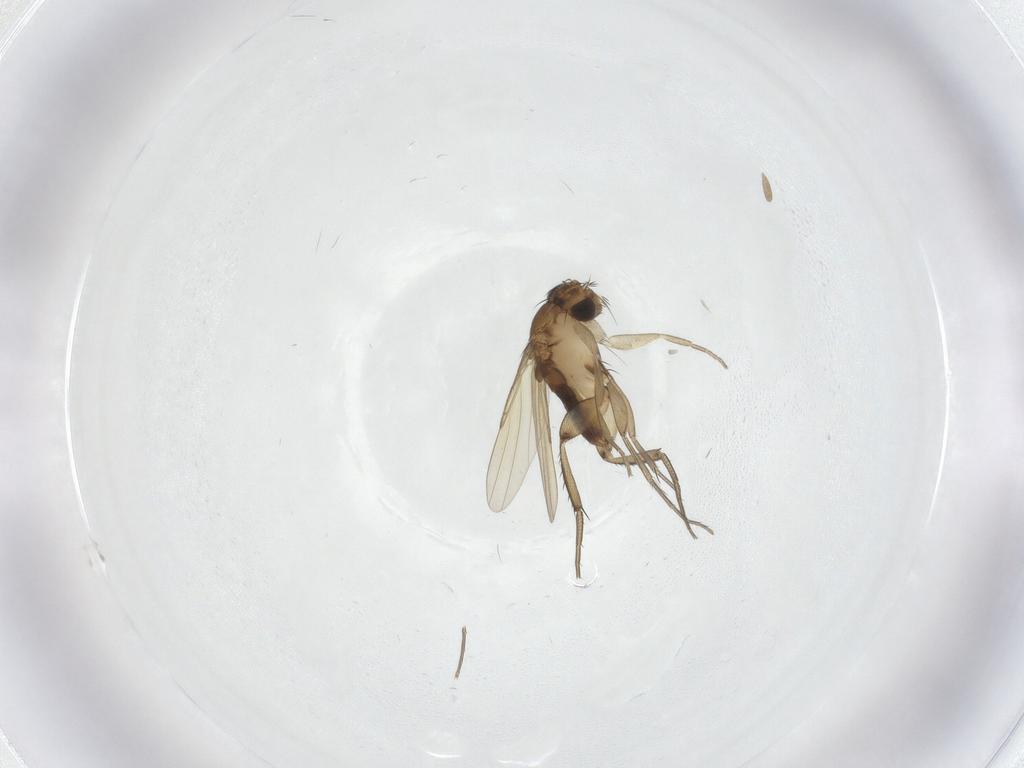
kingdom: Animalia
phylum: Arthropoda
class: Insecta
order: Diptera
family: Phoridae
